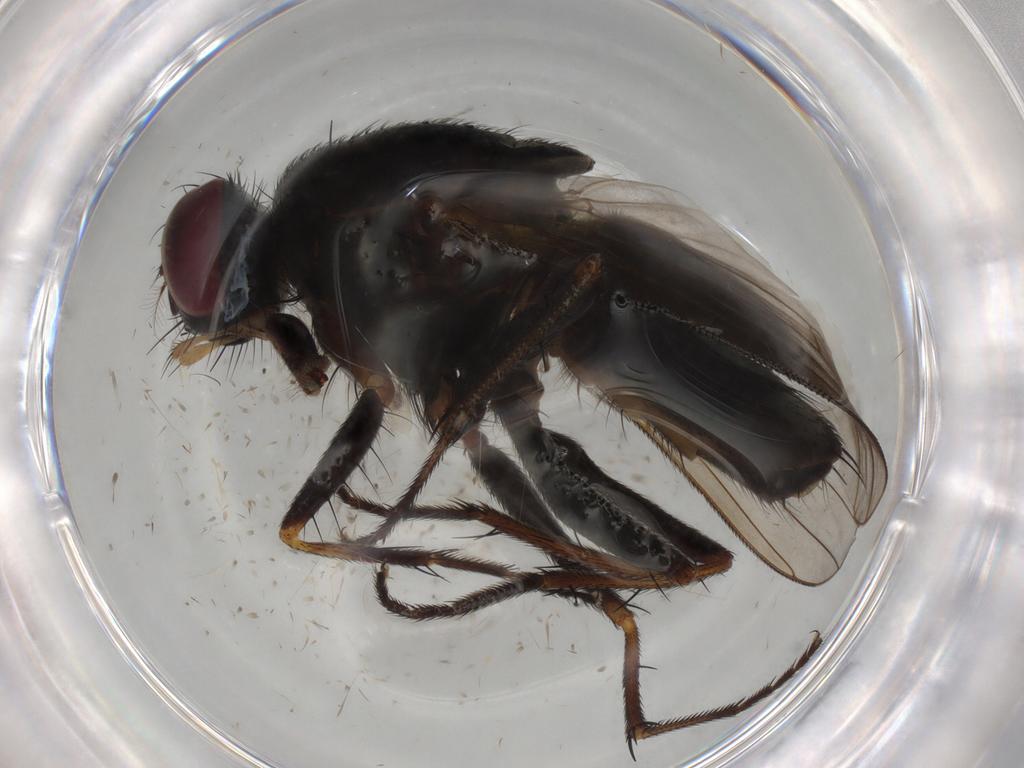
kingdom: Animalia
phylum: Arthropoda
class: Insecta
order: Diptera
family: Muscidae
